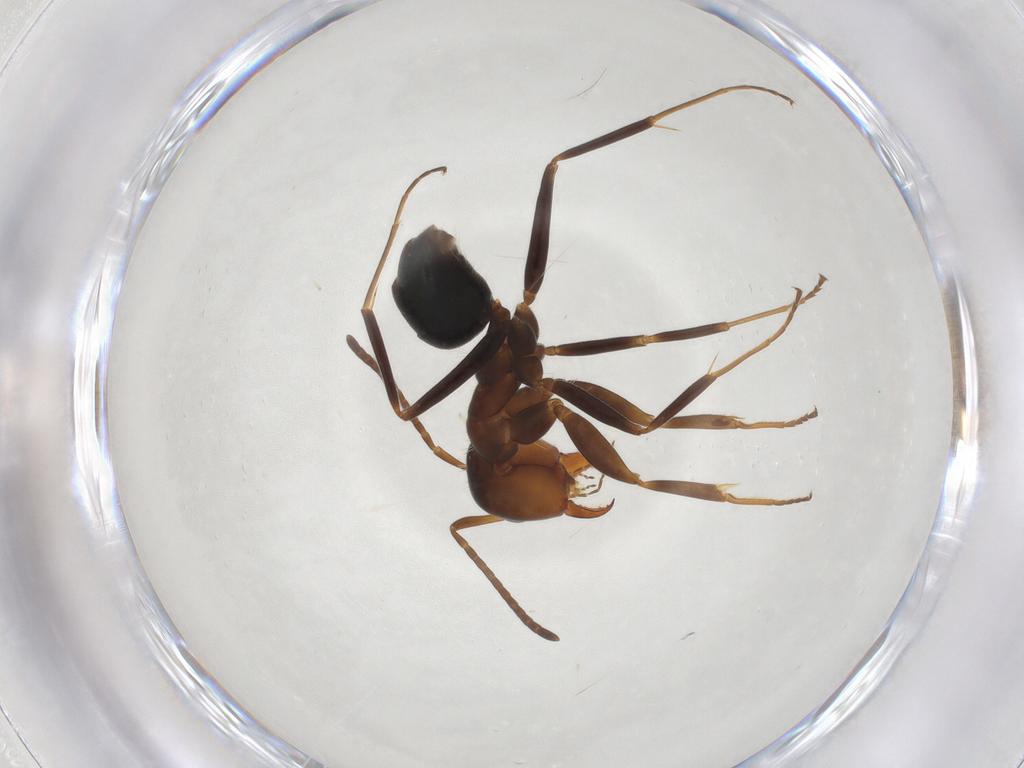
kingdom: Animalia
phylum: Arthropoda
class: Insecta
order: Hymenoptera
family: Formicidae
